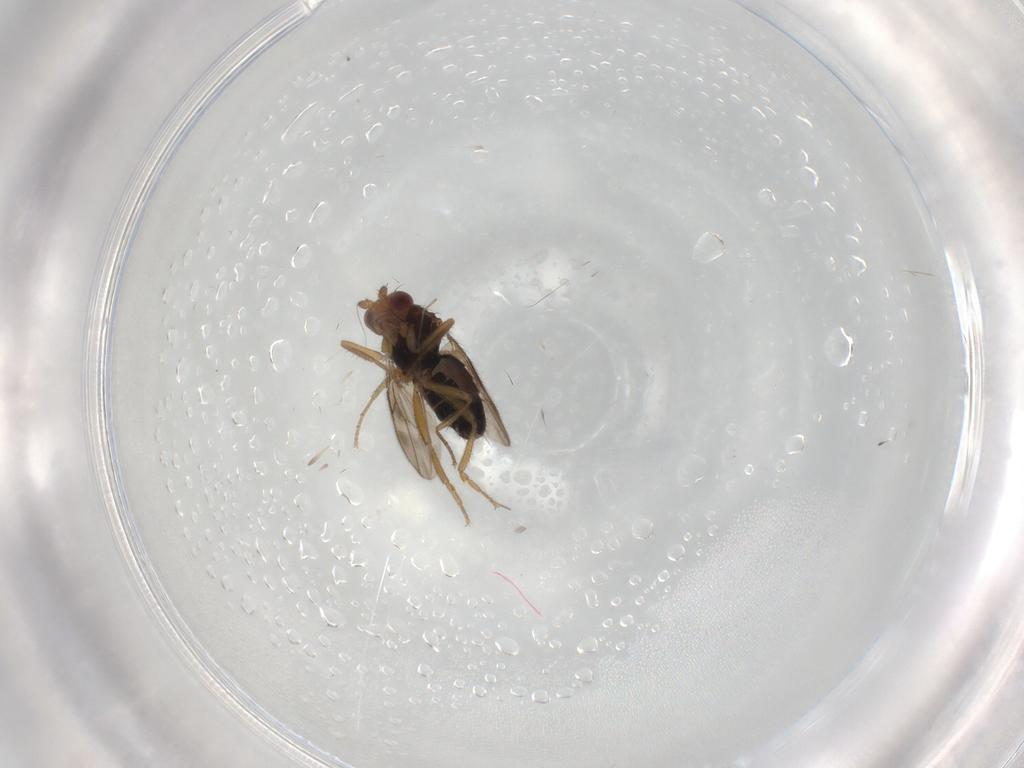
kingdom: Animalia
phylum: Arthropoda
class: Insecta
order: Diptera
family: Sphaeroceridae
